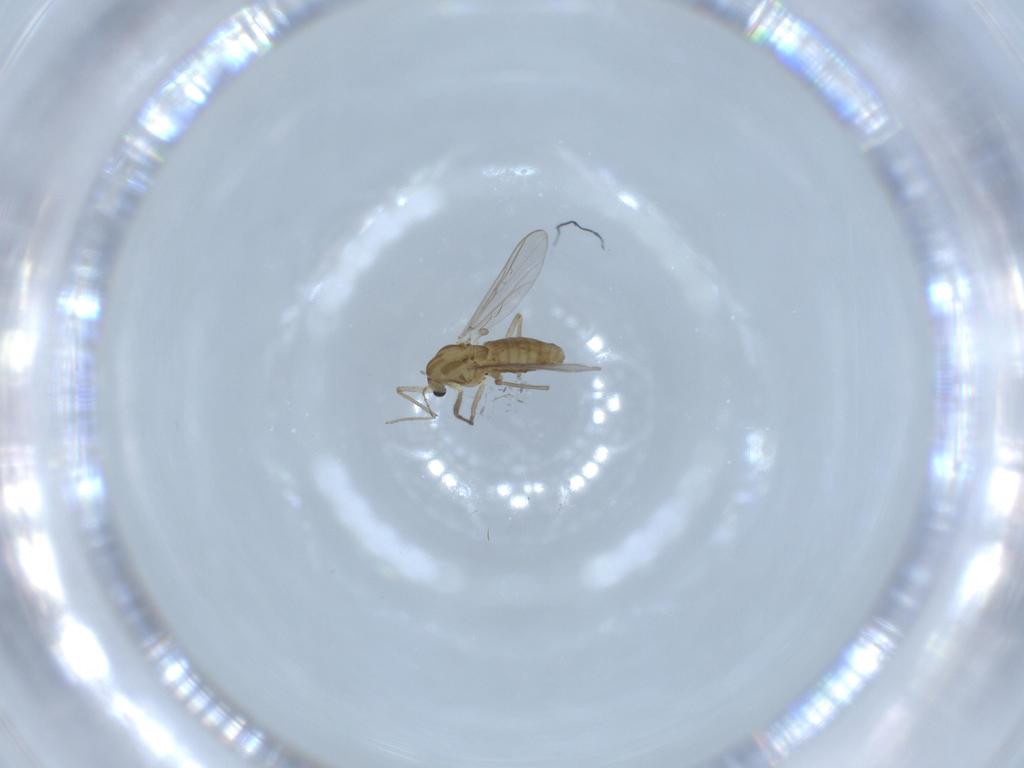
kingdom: Animalia
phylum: Arthropoda
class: Insecta
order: Diptera
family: Chironomidae
